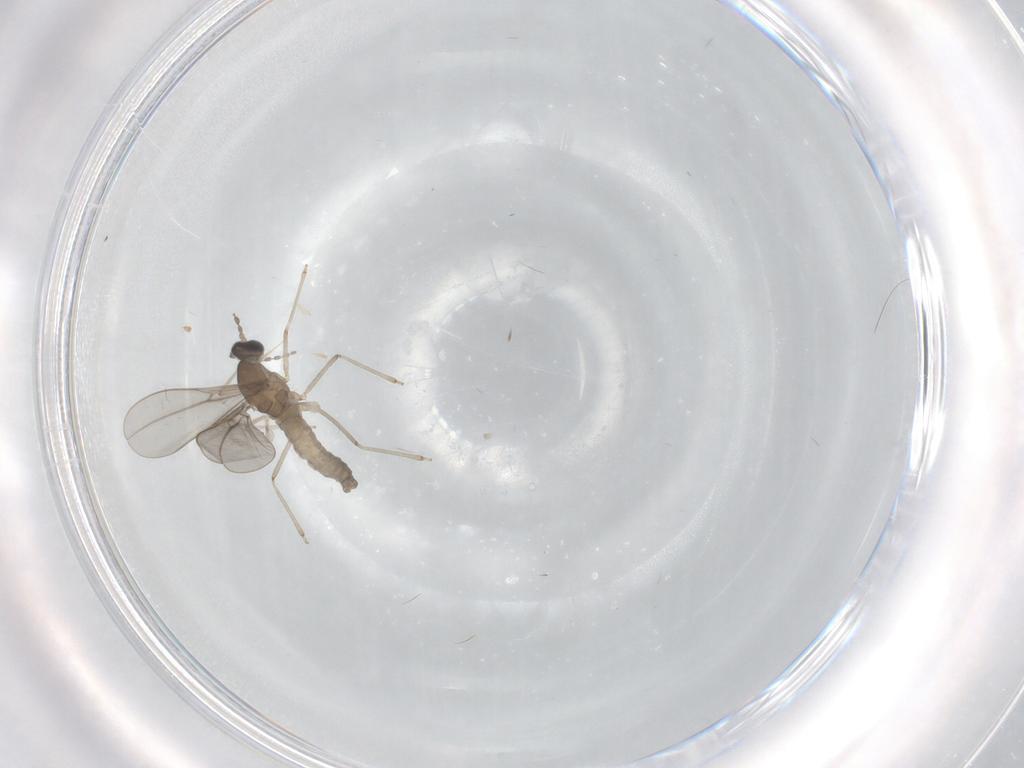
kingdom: Animalia
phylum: Arthropoda
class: Insecta
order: Diptera
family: Cecidomyiidae
